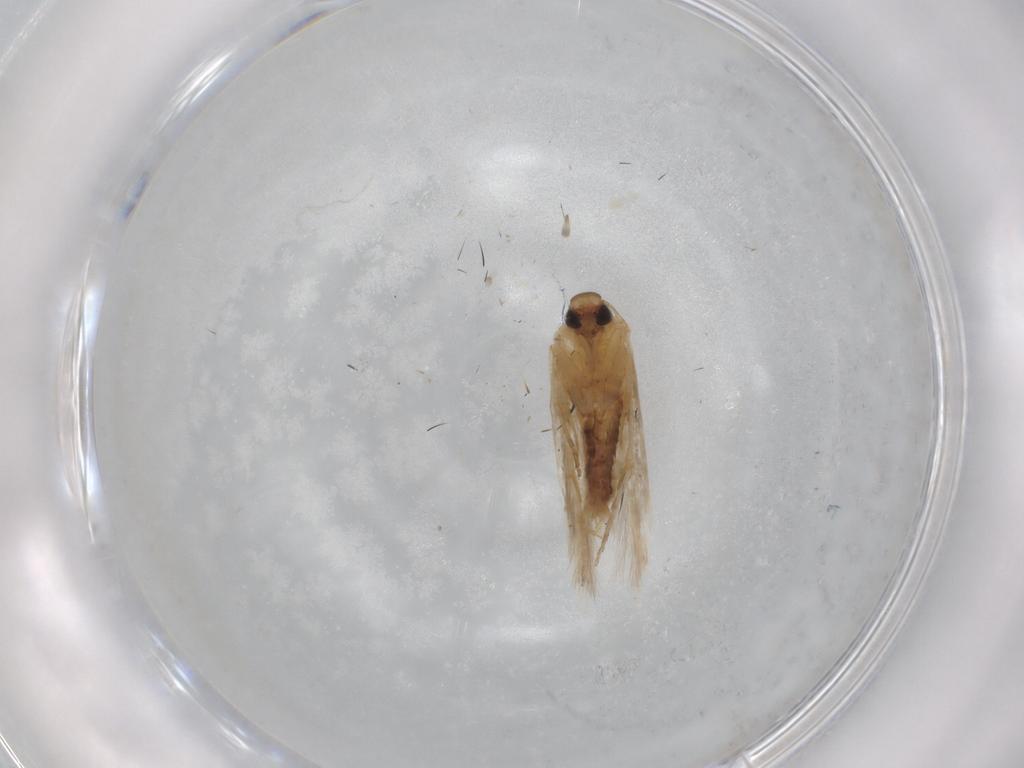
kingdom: Animalia
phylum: Arthropoda
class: Insecta
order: Lepidoptera
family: Cosmopterigidae
